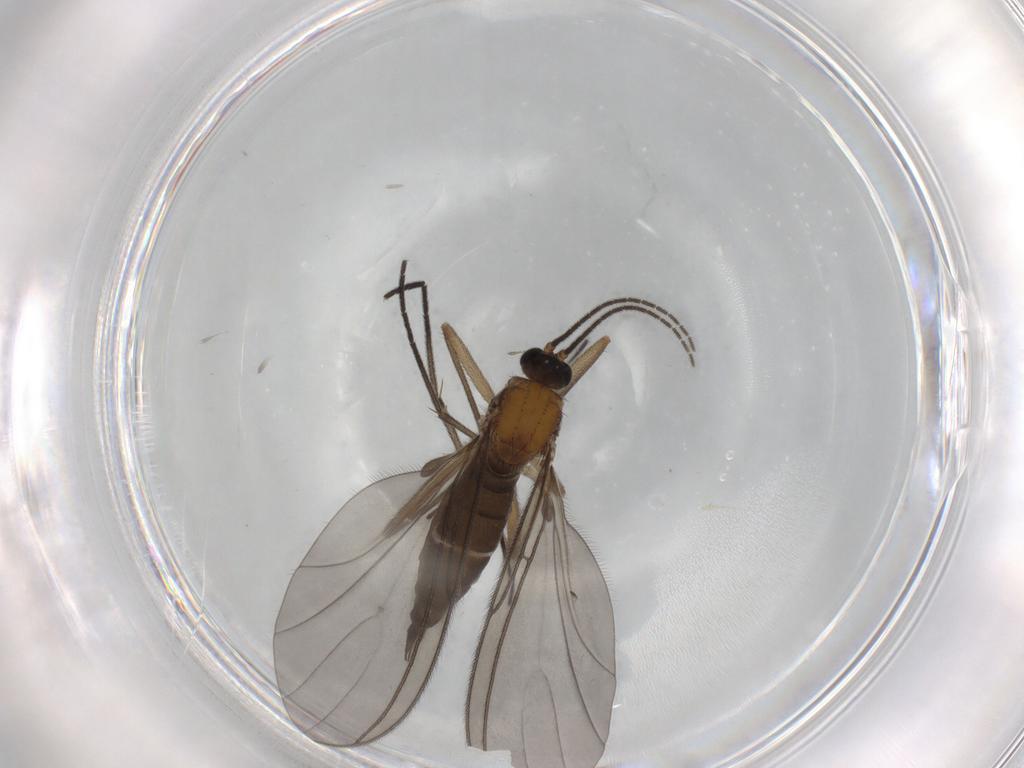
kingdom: Animalia
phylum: Arthropoda
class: Insecta
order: Diptera
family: Sciaridae
